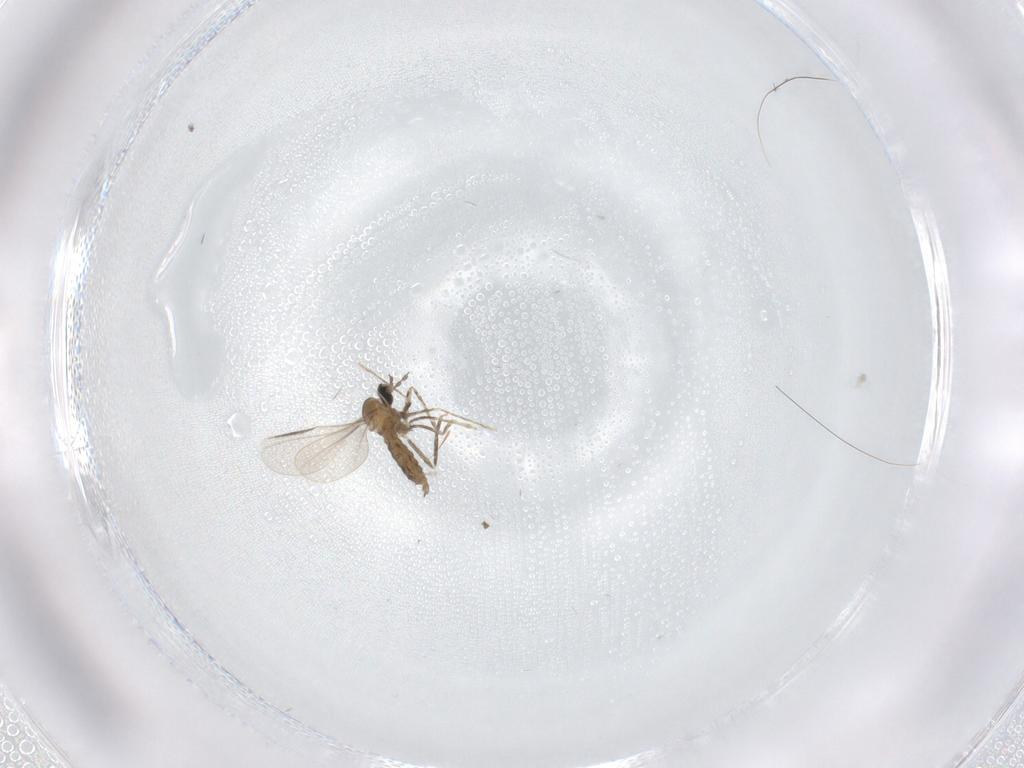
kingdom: Animalia
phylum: Arthropoda
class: Insecta
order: Diptera
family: Cecidomyiidae
